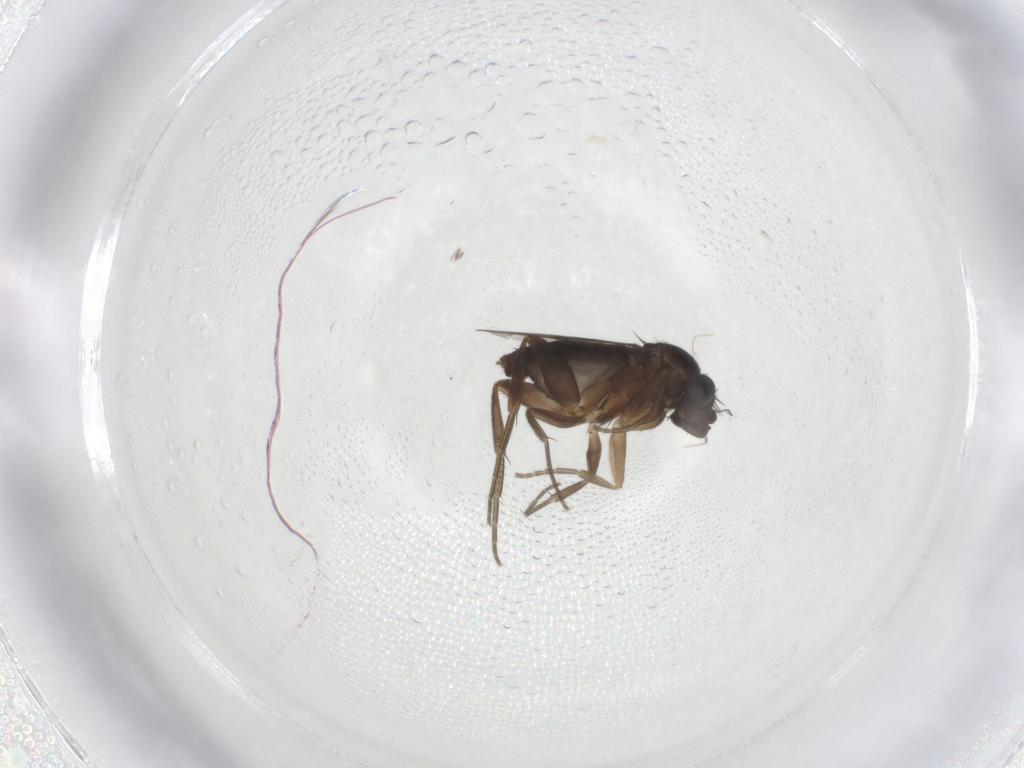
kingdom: Animalia
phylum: Arthropoda
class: Insecta
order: Diptera
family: Phoridae
